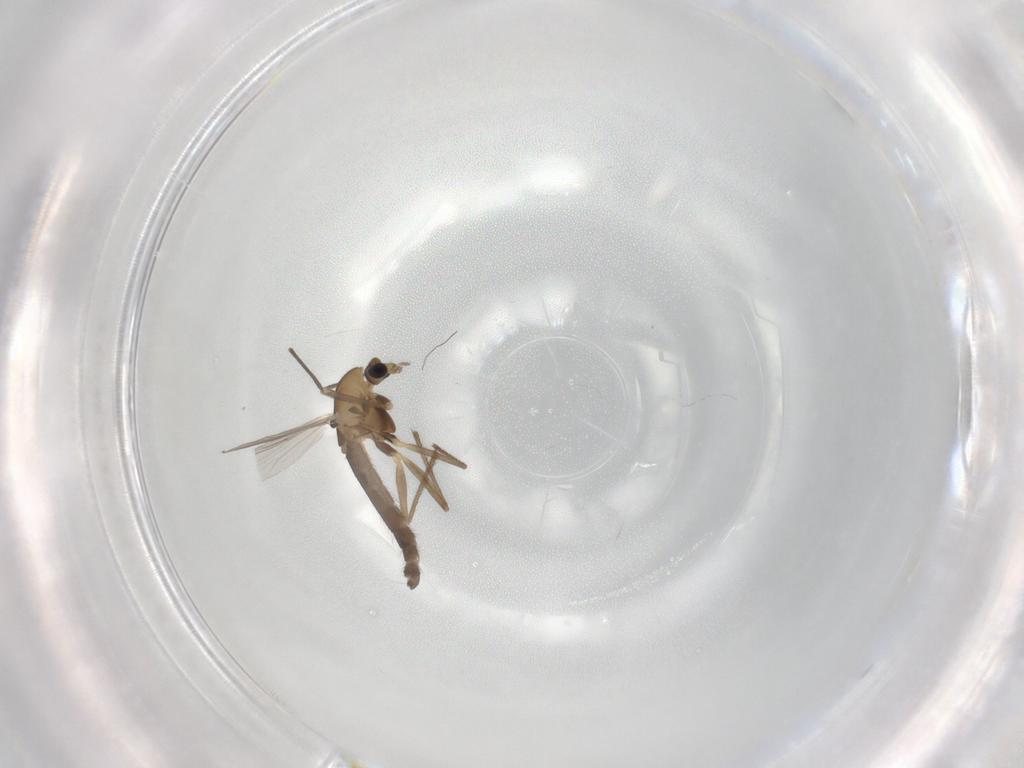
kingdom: Animalia
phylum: Arthropoda
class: Insecta
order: Diptera
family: Chironomidae
